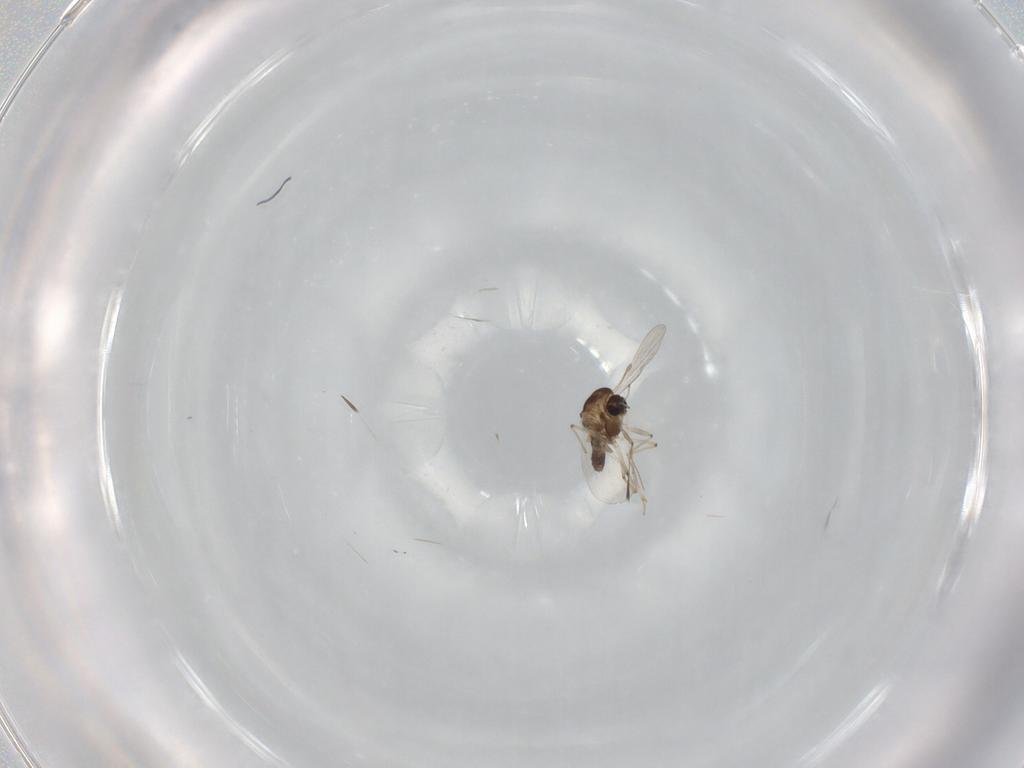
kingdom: Animalia
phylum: Arthropoda
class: Insecta
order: Diptera
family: Chironomidae
